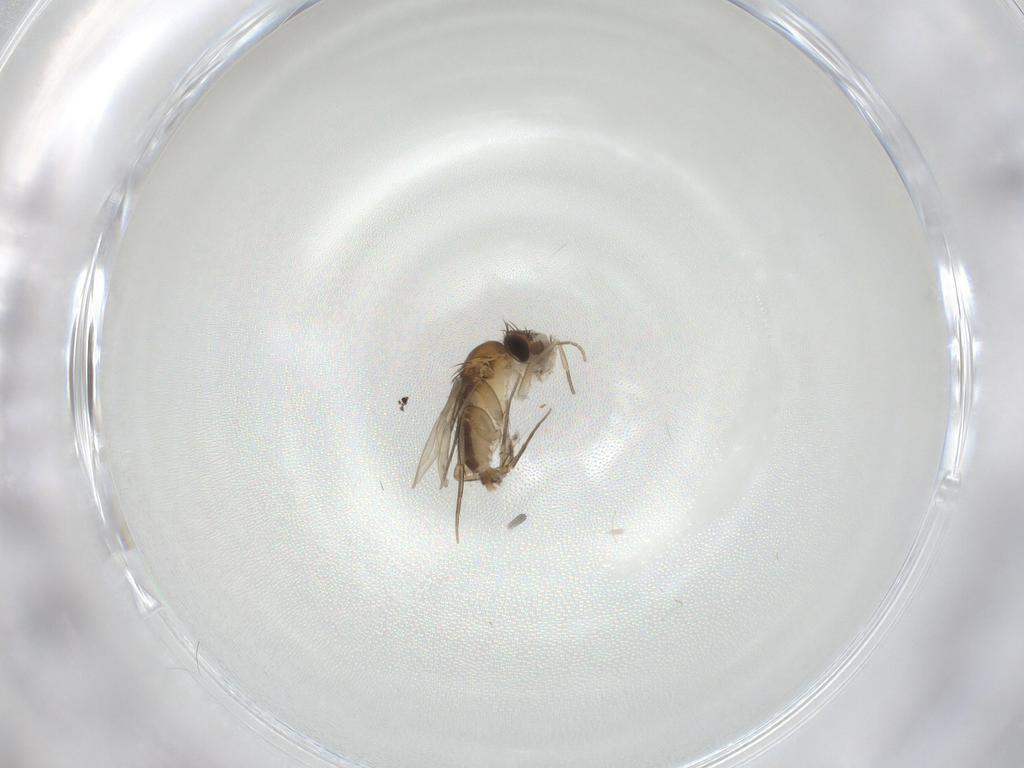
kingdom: Animalia
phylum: Arthropoda
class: Insecta
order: Diptera
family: Phoridae
